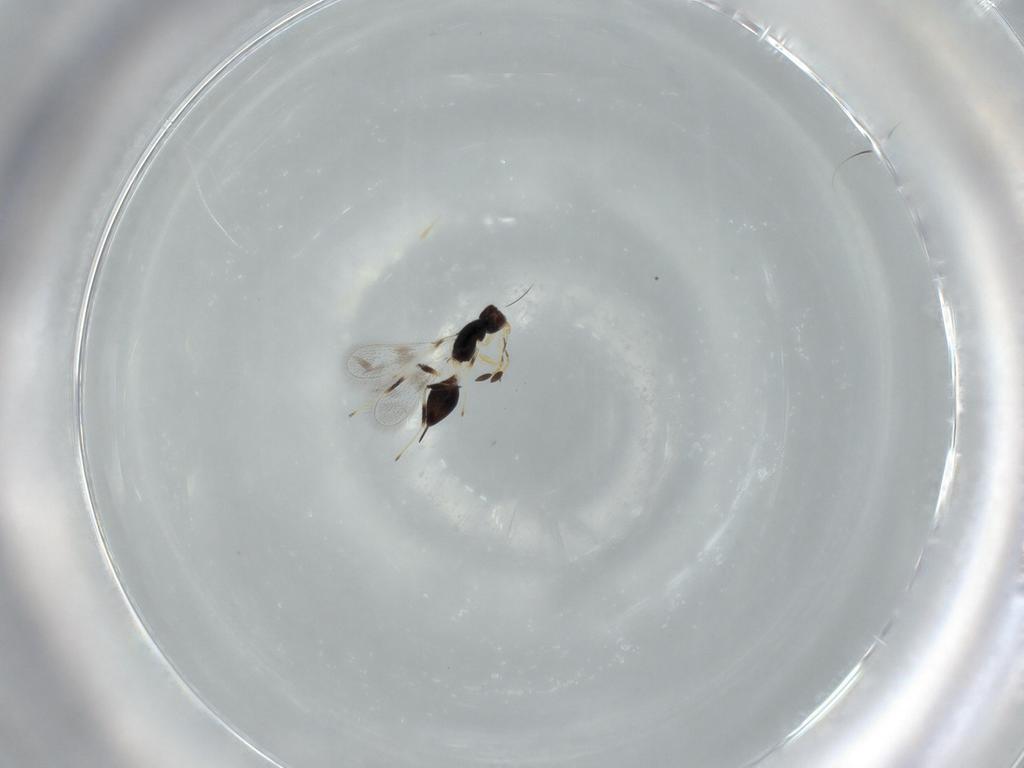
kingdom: Animalia
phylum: Arthropoda
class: Insecta
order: Hymenoptera
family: Mymaridae
